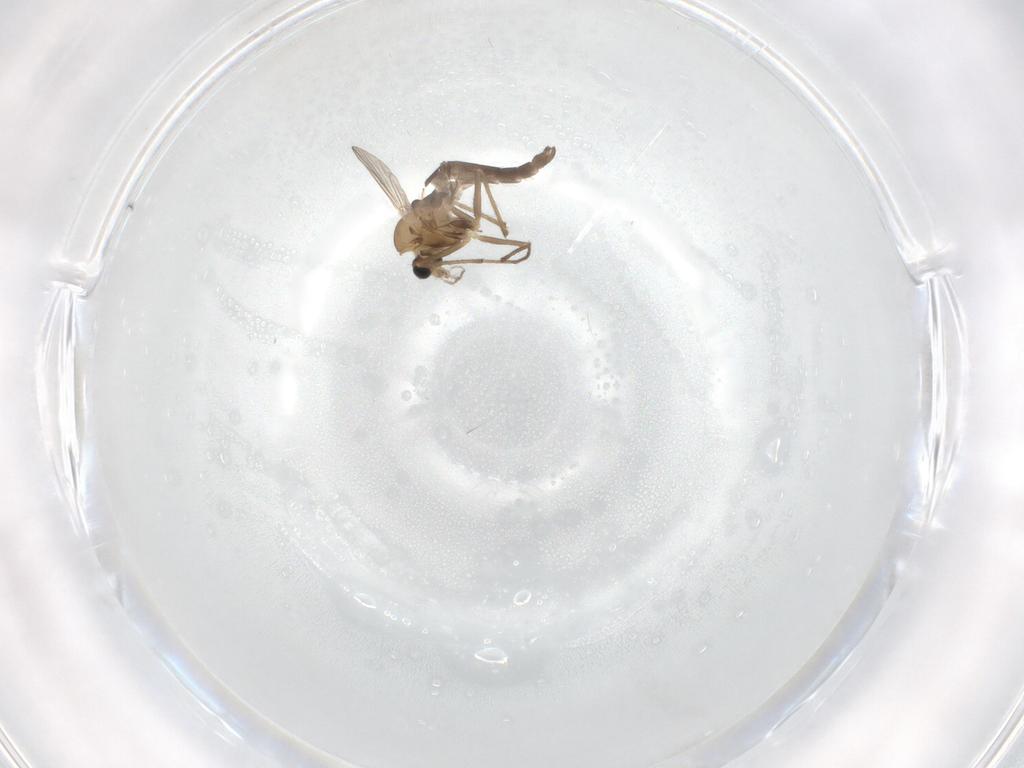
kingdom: Animalia
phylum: Arthropoda
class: Insecta
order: Diptera
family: Chironomidae
